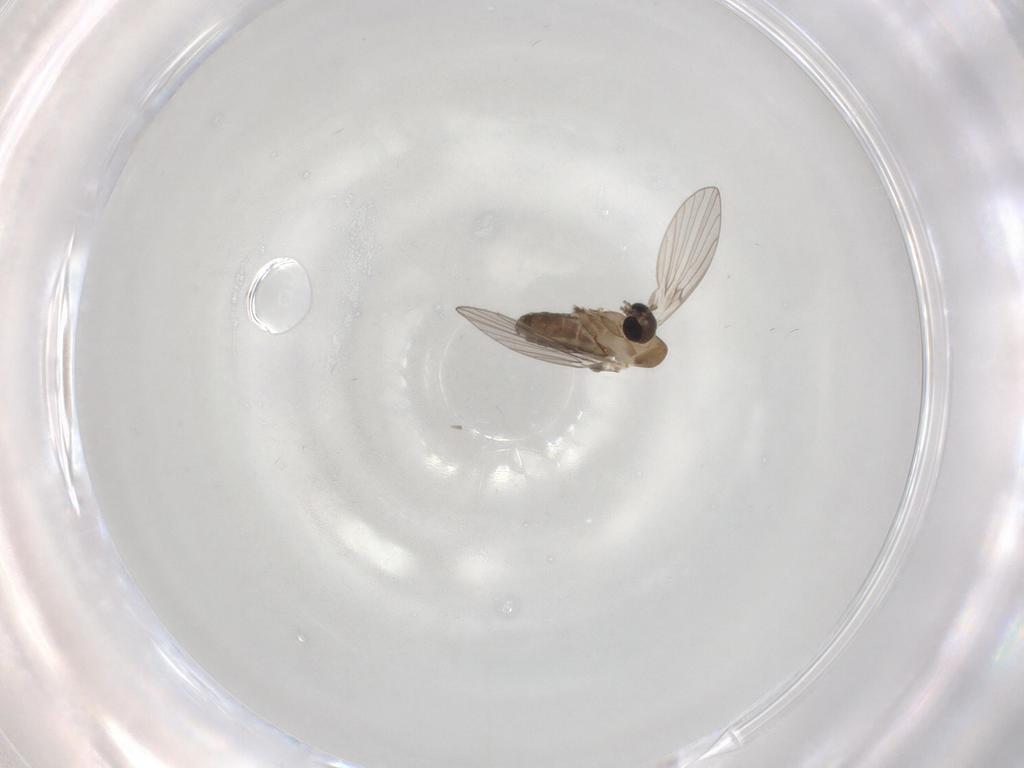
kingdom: Animalia
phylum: Arthropoda
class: Insecta
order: Diptera
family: Psychodidae
